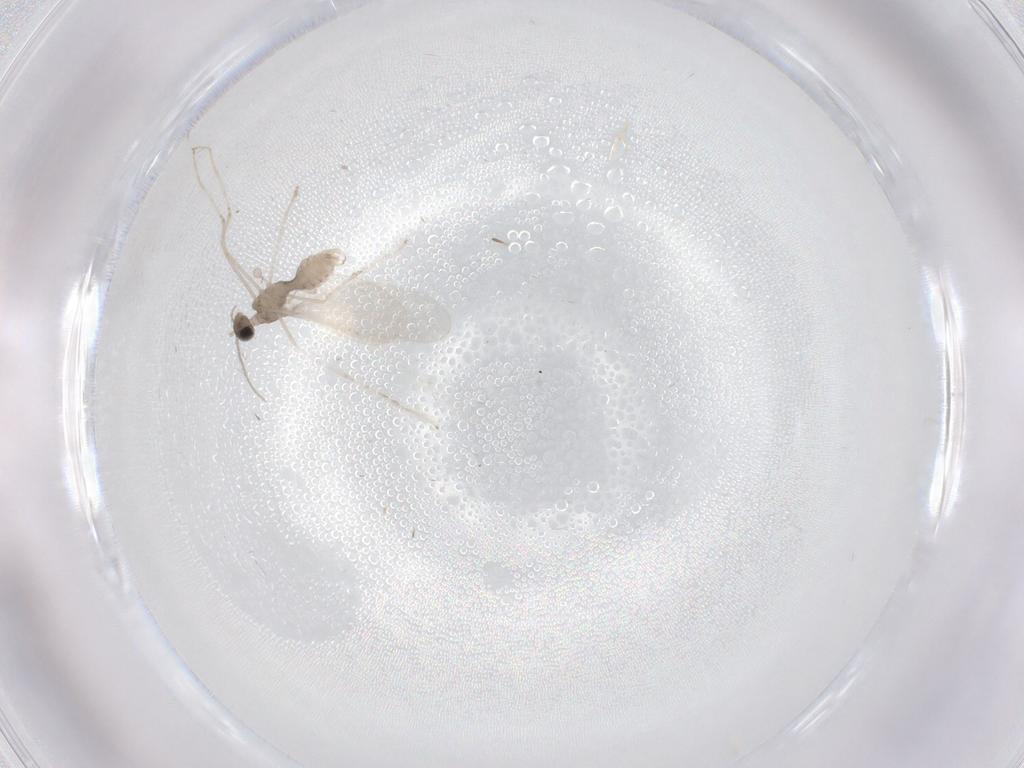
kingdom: Animalia
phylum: Arthropoda
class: Insecta
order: Diptera
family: Cecidomyiidae
